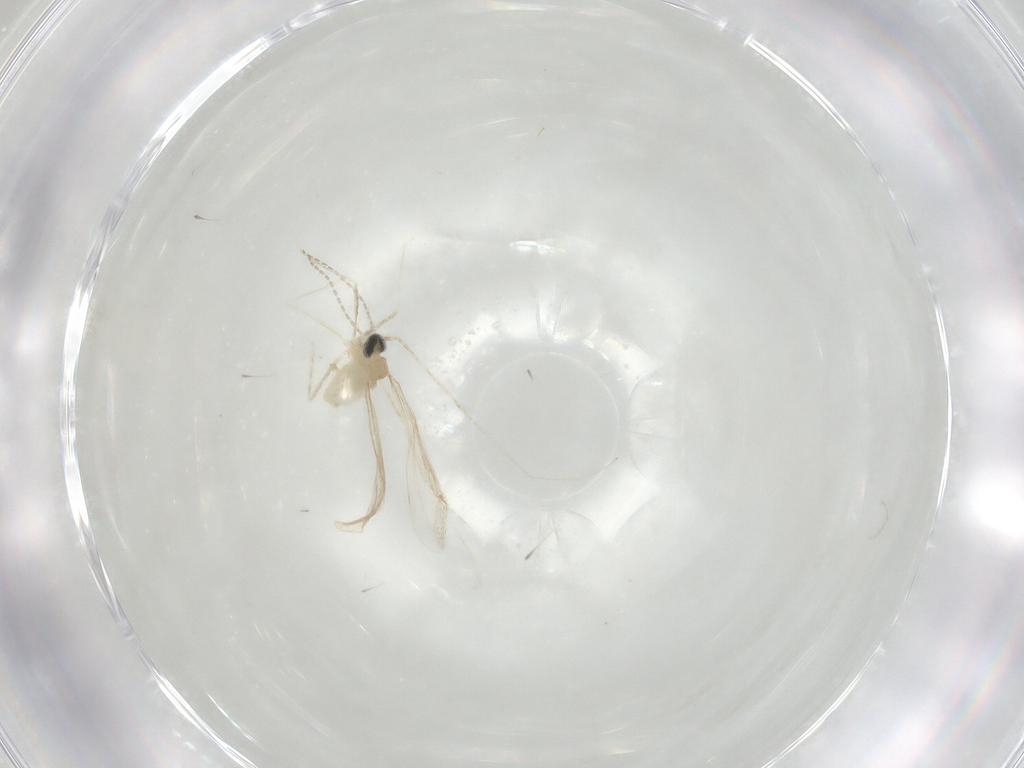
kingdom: Animalia
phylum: Arthropoda
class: Insecta
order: Diptera
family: Cecidomyiidae
